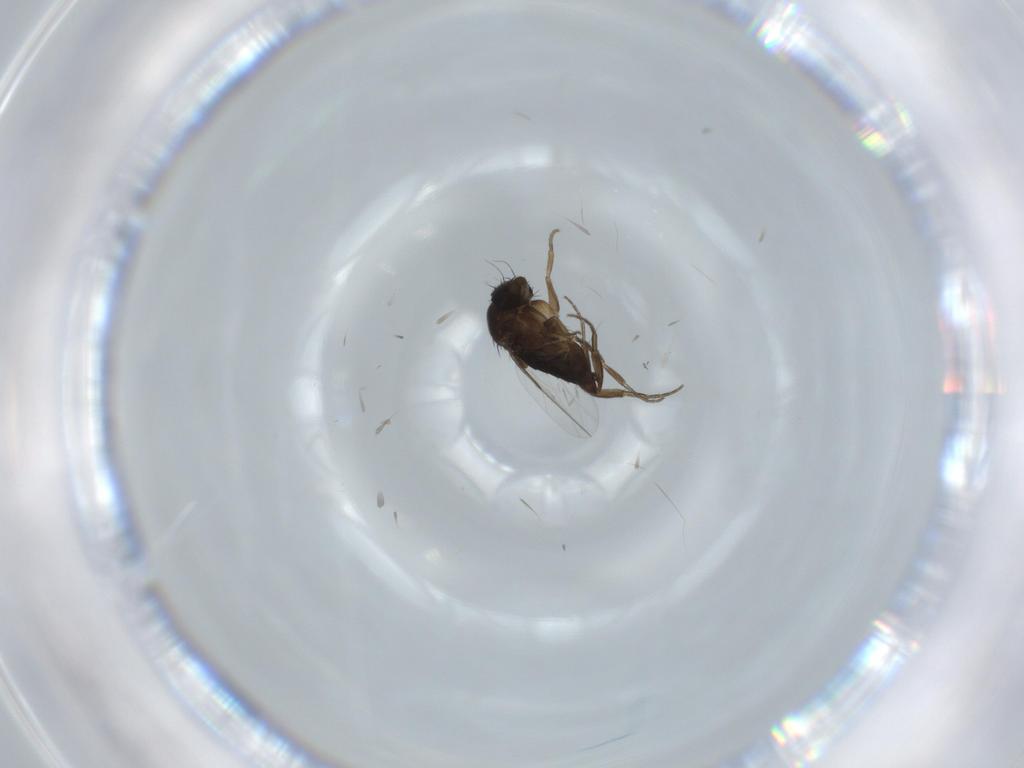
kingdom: Animalia
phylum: Arthropoda
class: Insecta
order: Diptera
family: Phoridae
